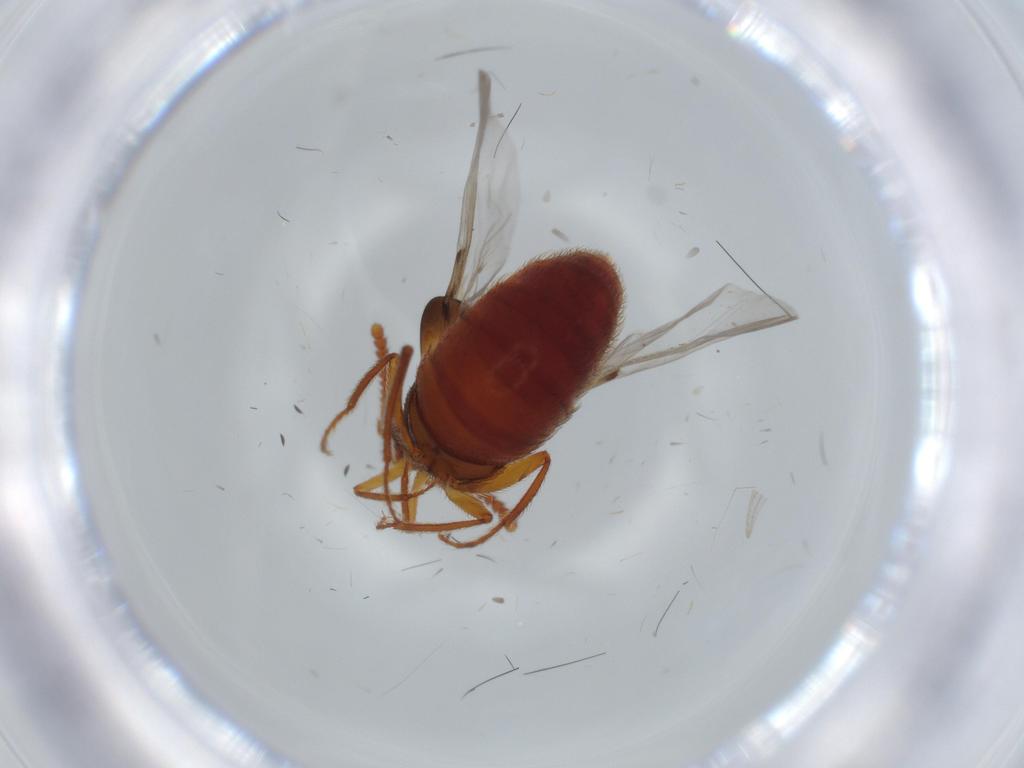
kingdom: Animalia
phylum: Arthropoda
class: Insecta
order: Coleoptera
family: Staphylinidae
